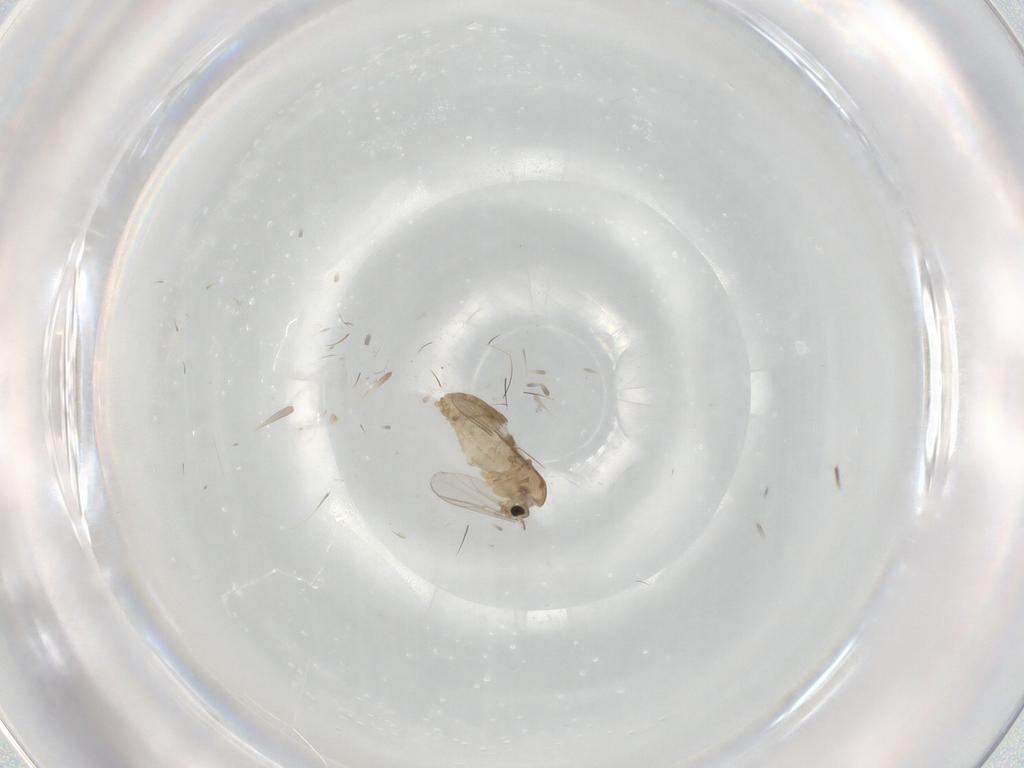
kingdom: Animalia
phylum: Arthropoda
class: Insecta
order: Diptera
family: Chironomidae
